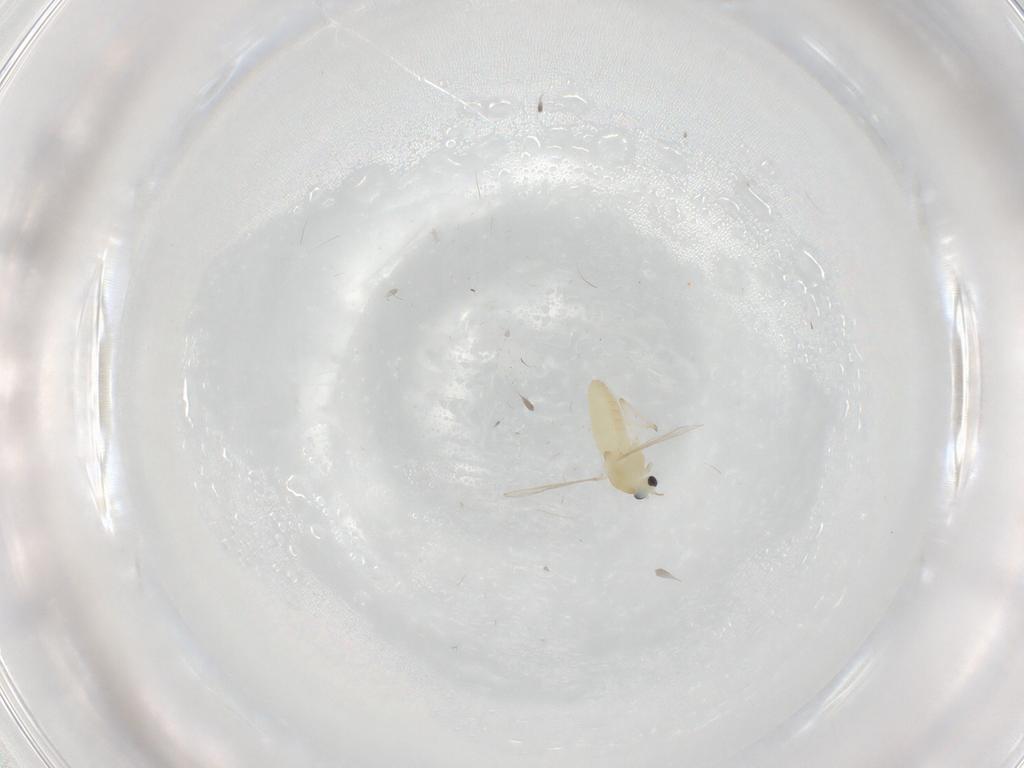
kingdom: Animalia
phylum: Arthropoda
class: Insecta
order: Diptera
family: Chironomidae
